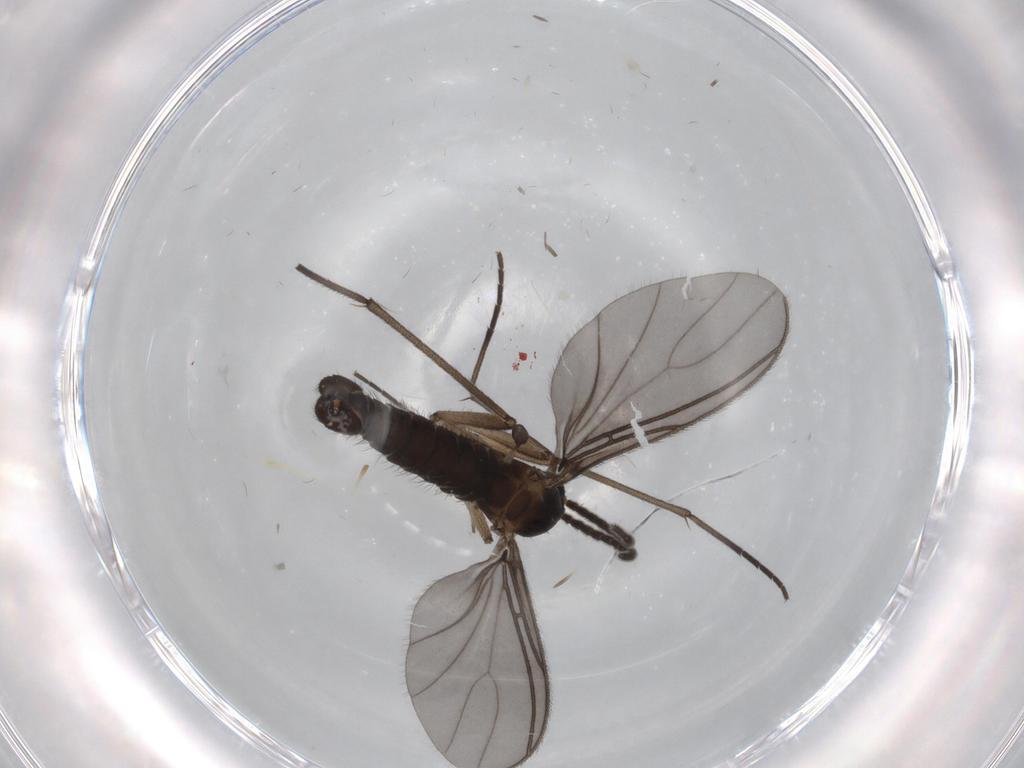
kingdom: Animalia
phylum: Arthropoda
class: Insecta
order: Diptera
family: Sciaridae
